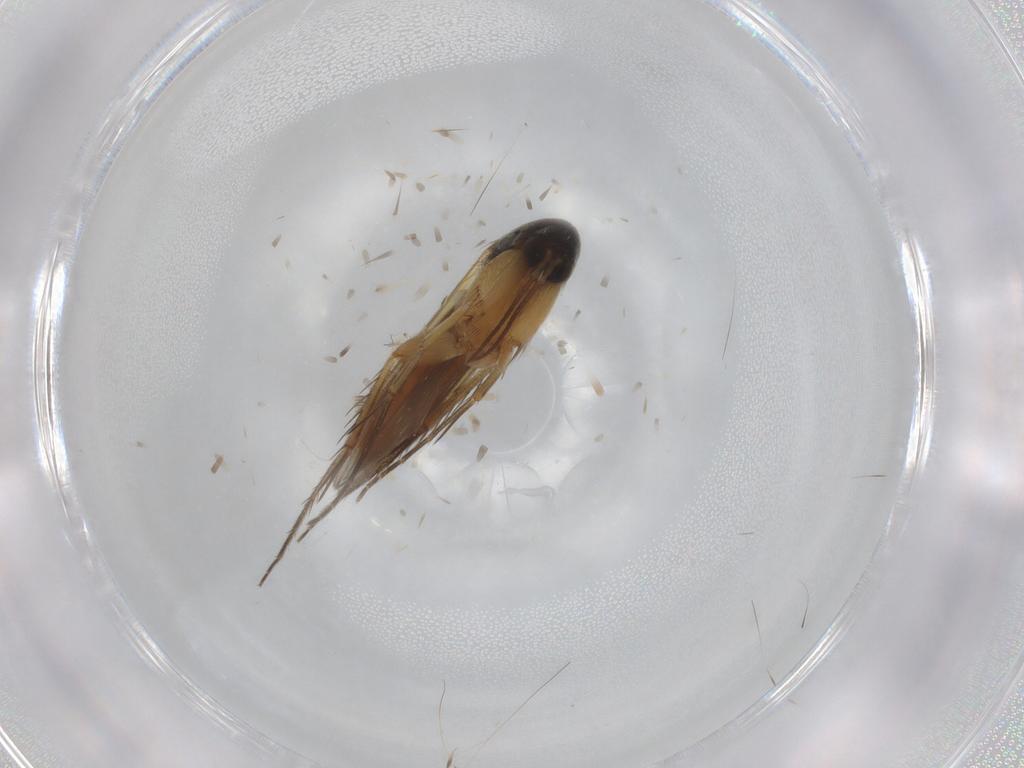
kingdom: Animalia
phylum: Arthropoda
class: Insecta
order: Diptera
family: Mycetophilidae
